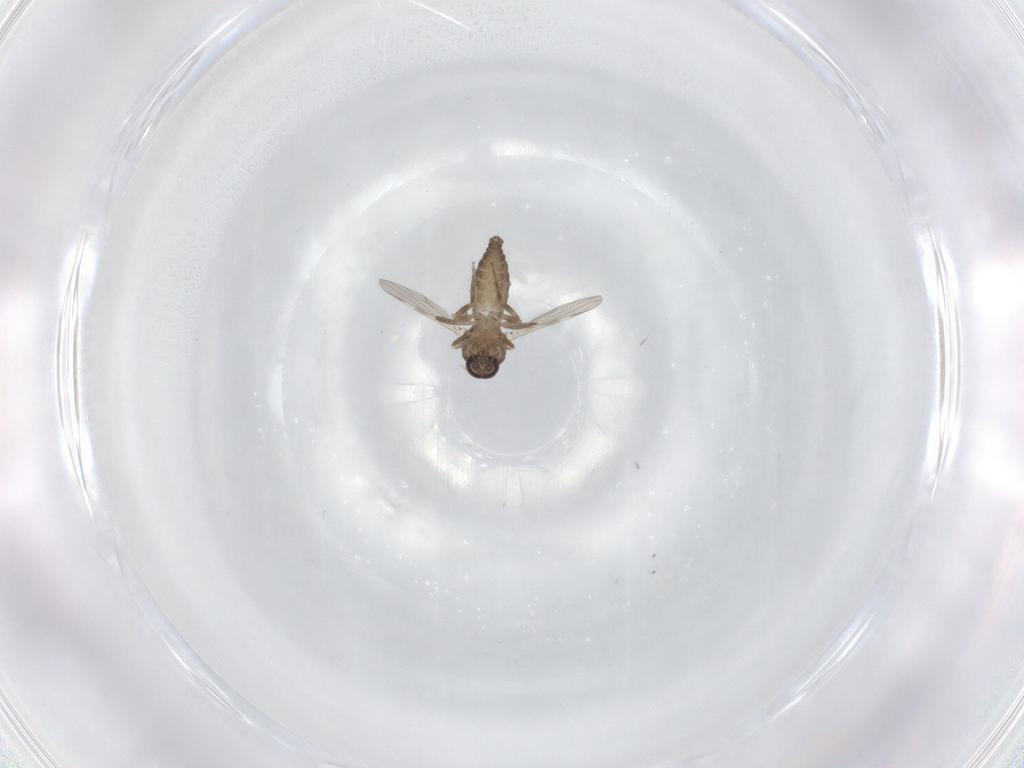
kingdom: Animalia
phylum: Arthropoda
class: Insecta
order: Diptera
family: Ceratopogonidae
